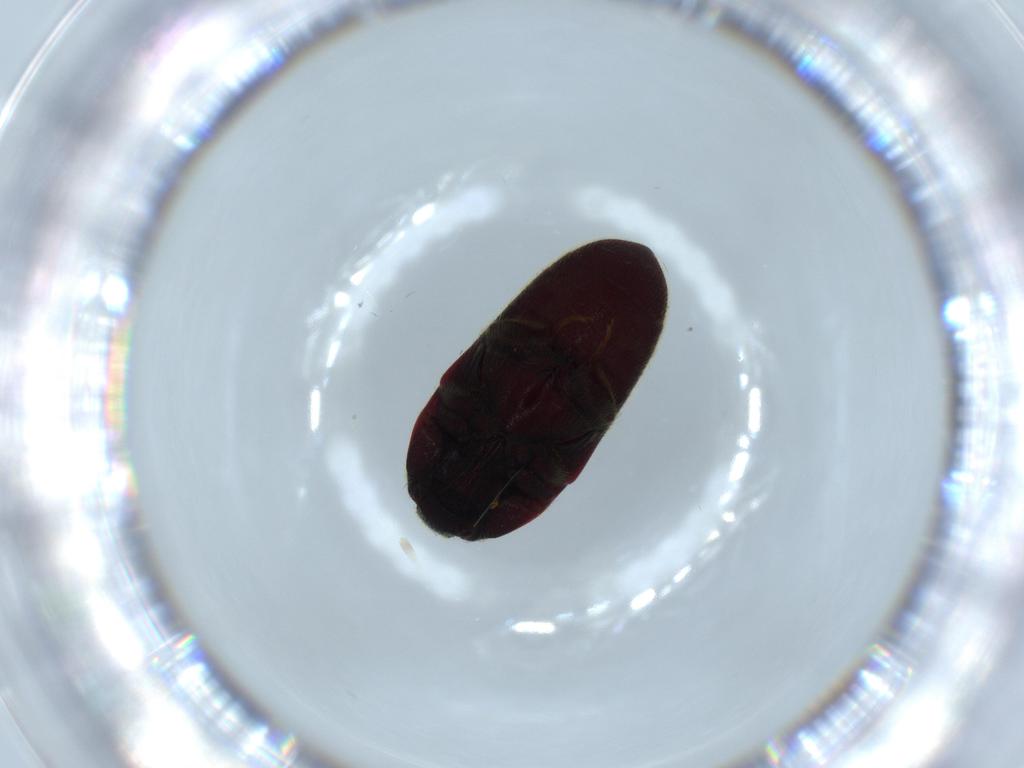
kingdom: Animalia
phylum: Arthropoda
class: Insecta
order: Coleoptera
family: Throscidae
